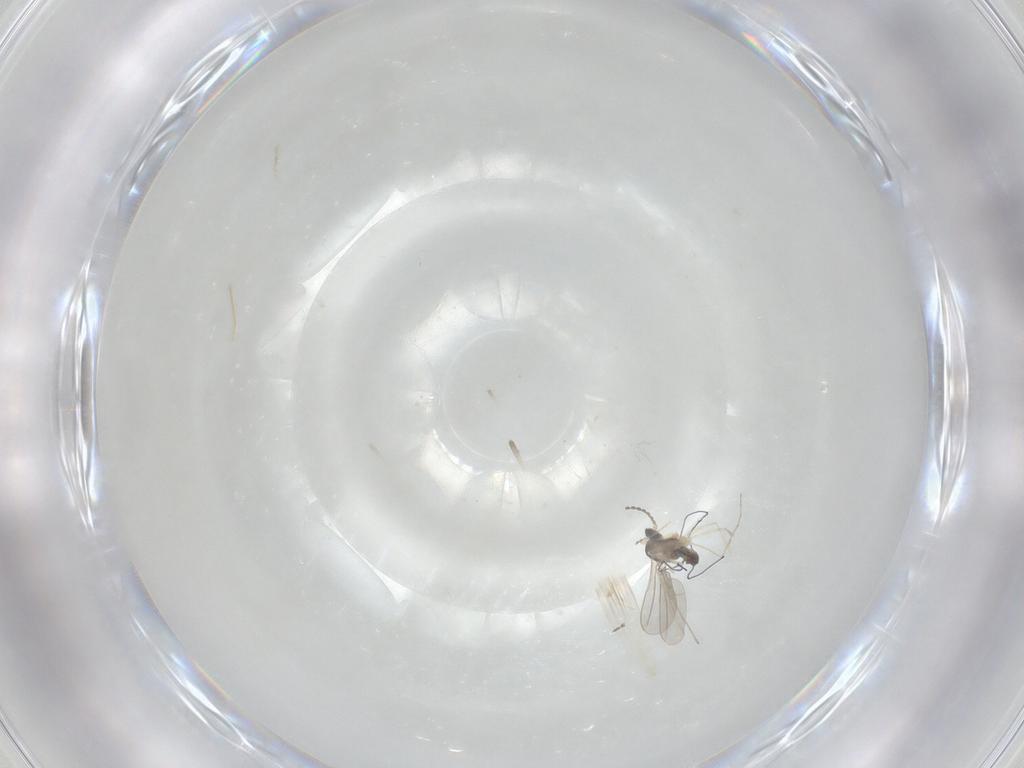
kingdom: Animalia
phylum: Arthropoda
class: Insecta
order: Diptera
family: Cecidomyiidae
